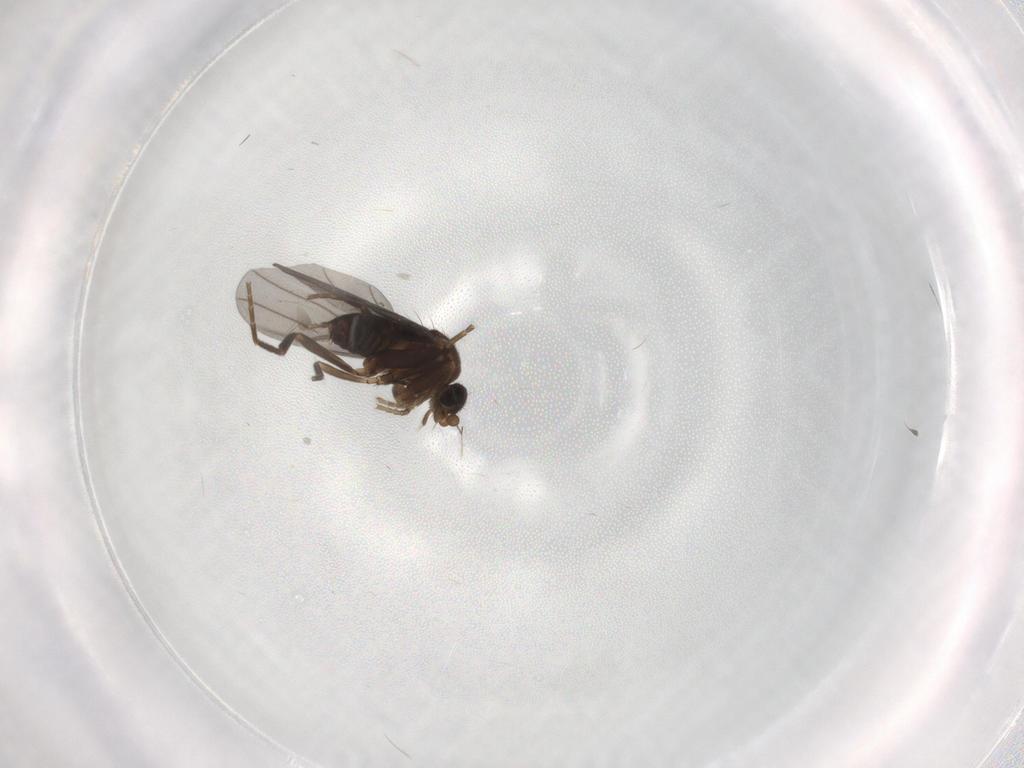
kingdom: Animalia
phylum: Arthropoda
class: Insecta
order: Diptera
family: Phoridae
